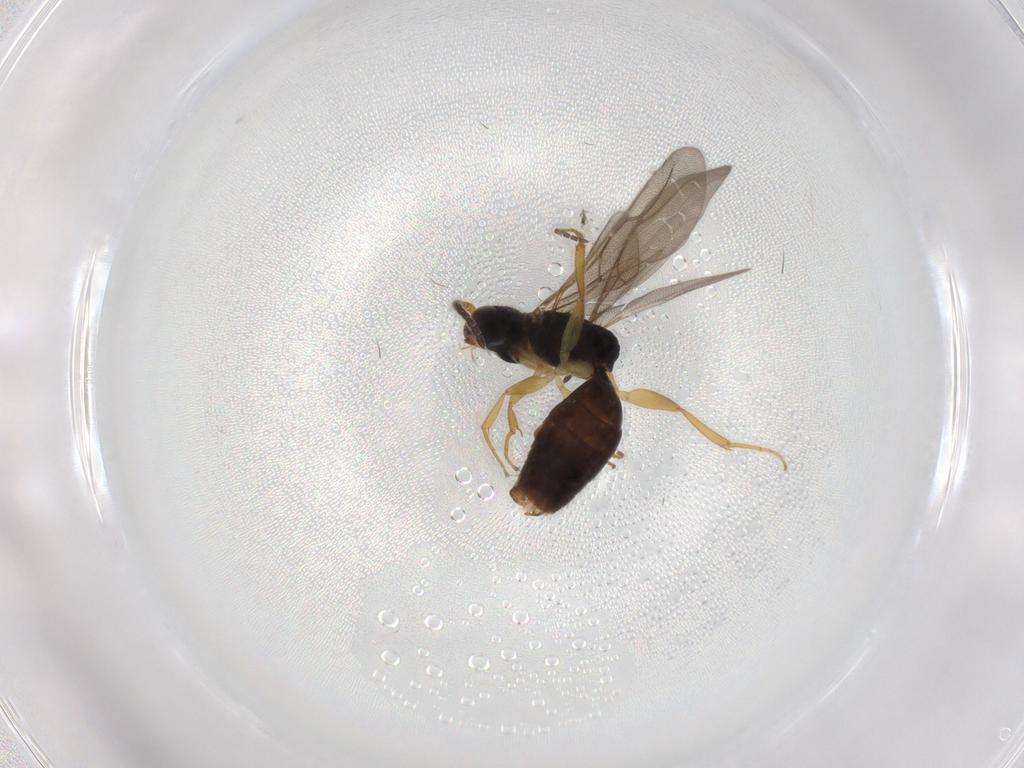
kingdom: Animalia
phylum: Arthropoda
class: Insecta
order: Hymenoptera
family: Bethylidae
